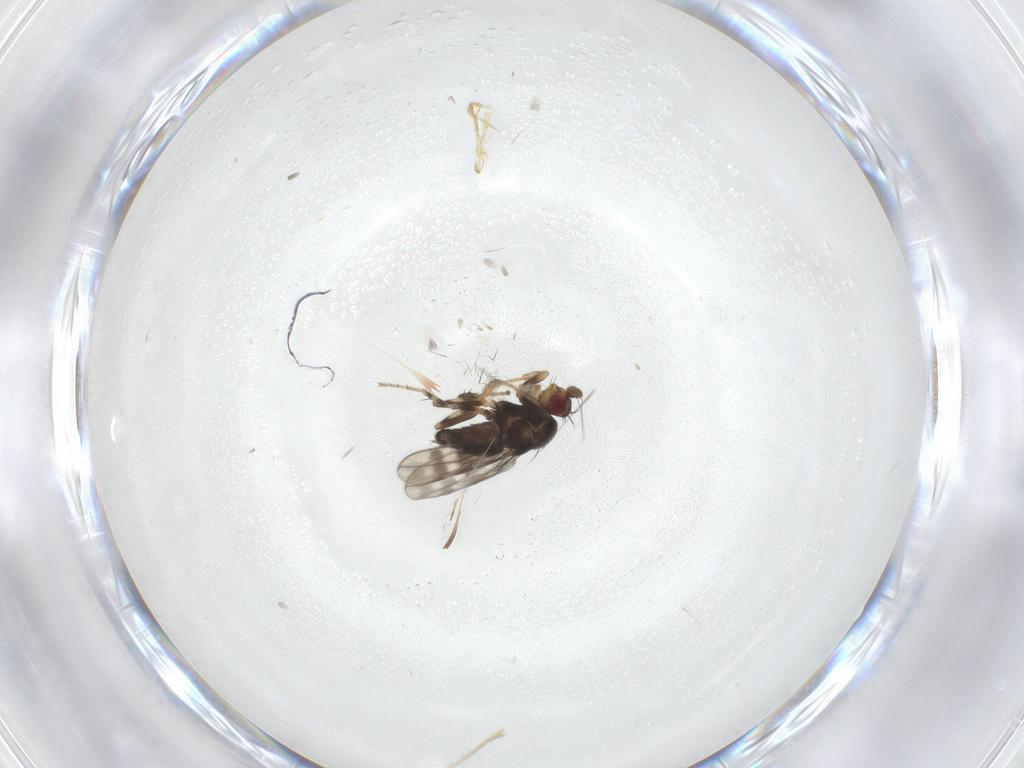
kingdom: Animalia
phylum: Arthropoda
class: Insecta
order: Diptera
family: Sphaeroceridae
